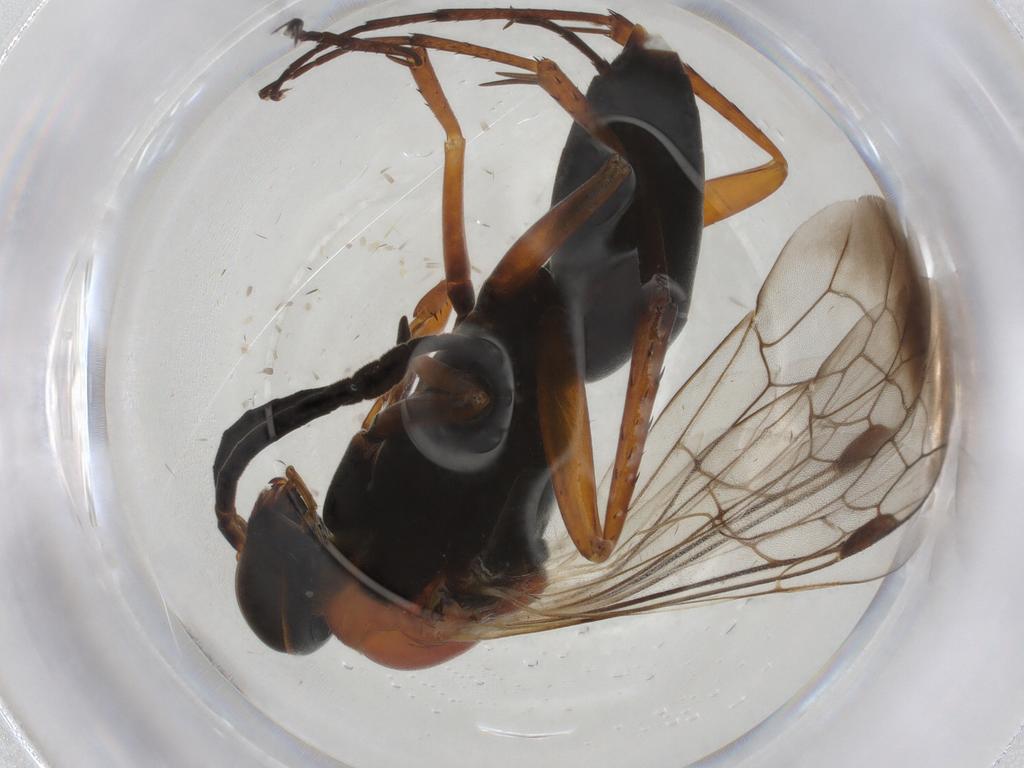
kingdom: Animalia
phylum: Arthropoda
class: Insecta
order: Hymenoptera
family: Pompilidae
